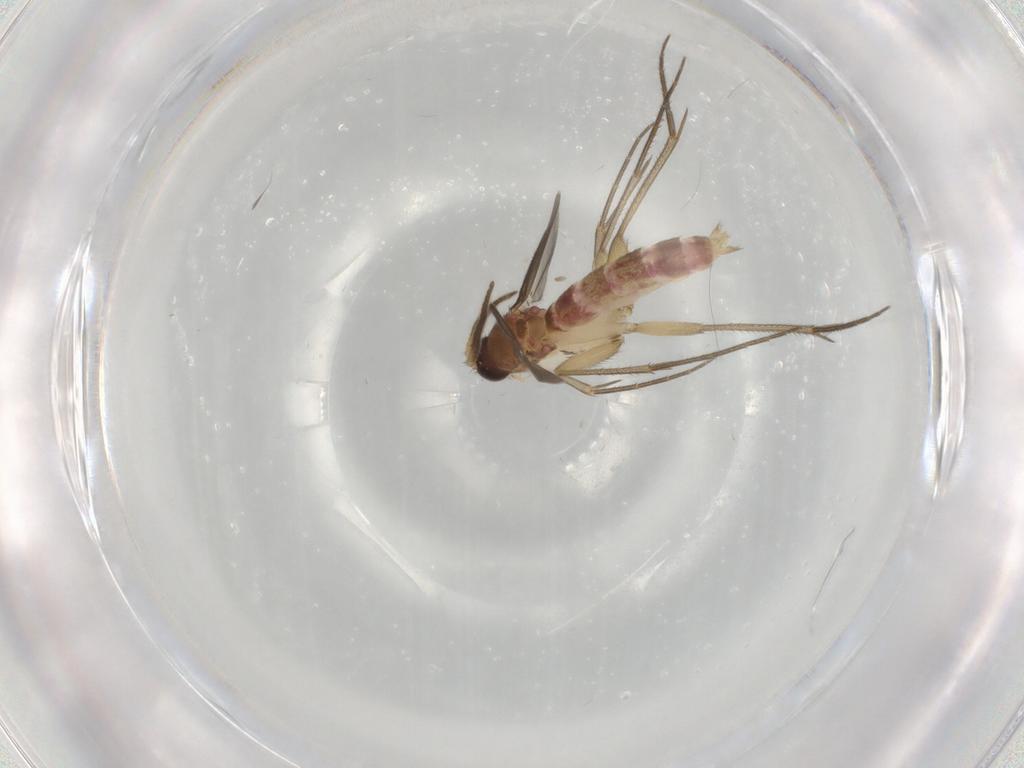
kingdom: Animalia
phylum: Arthropoda
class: Insecta
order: Diptera
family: Mycetophilidae
